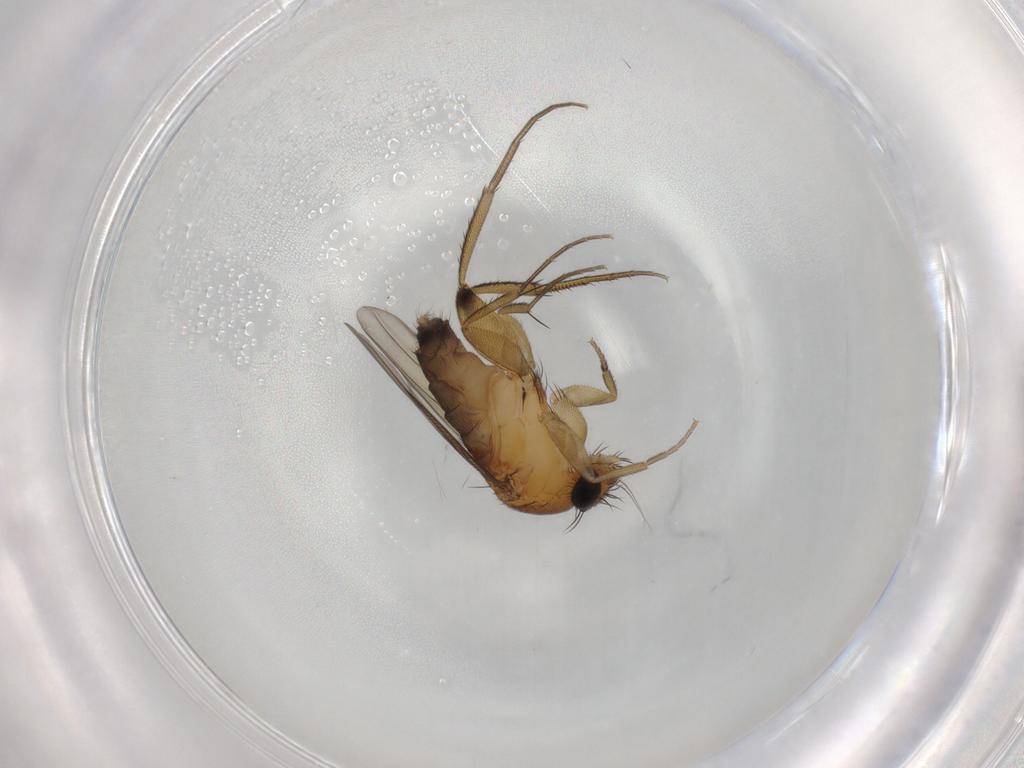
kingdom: Animalia
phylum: Arthropoda
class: Insecta
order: Diptera
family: Phoridae
